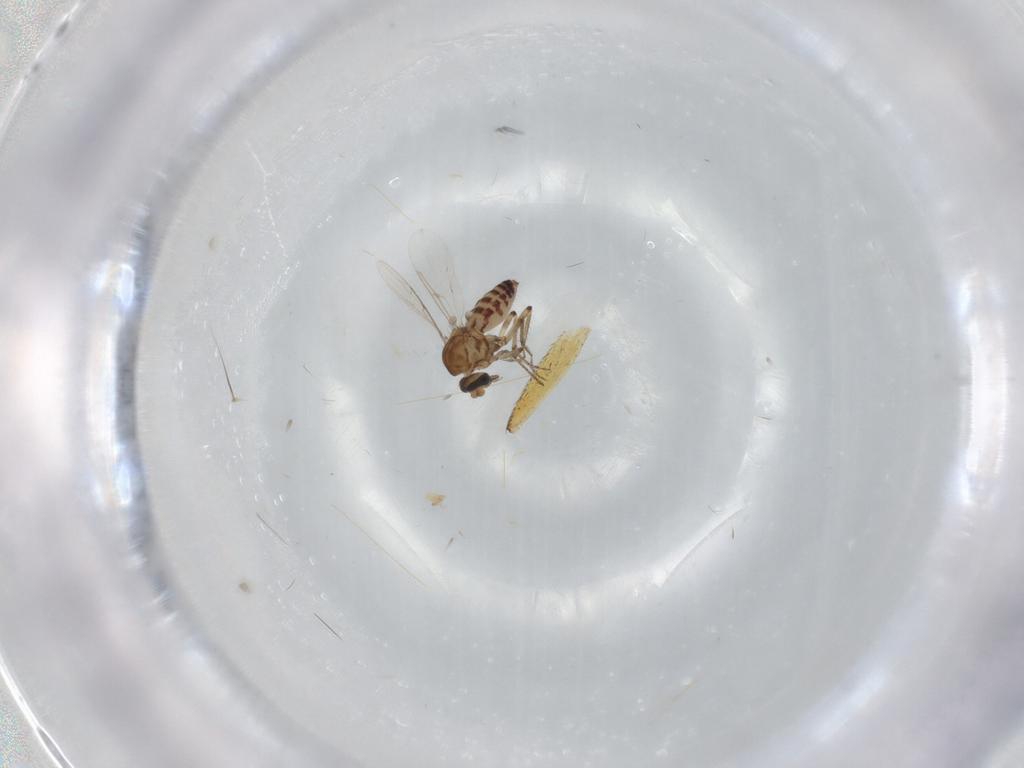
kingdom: Animalia
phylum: Arthropoda
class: Insecta
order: Diptera
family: Ceratopogonidae
